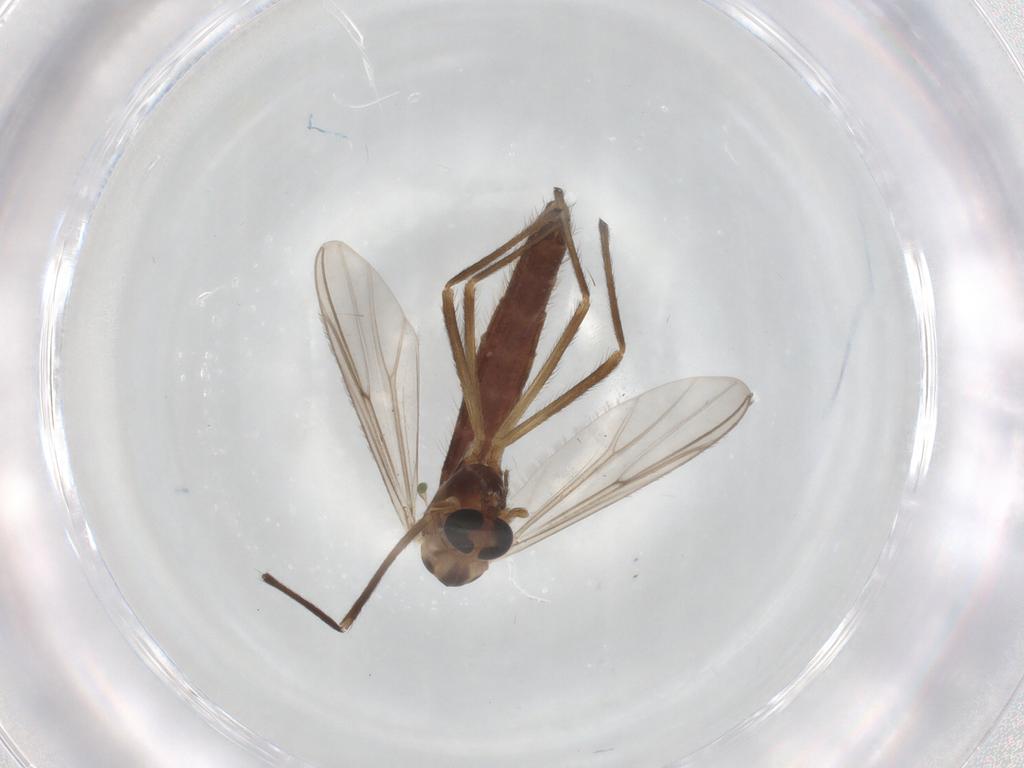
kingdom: Animalia
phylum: Arthropoda
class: Insecta
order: Diptera
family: Chironomidae
